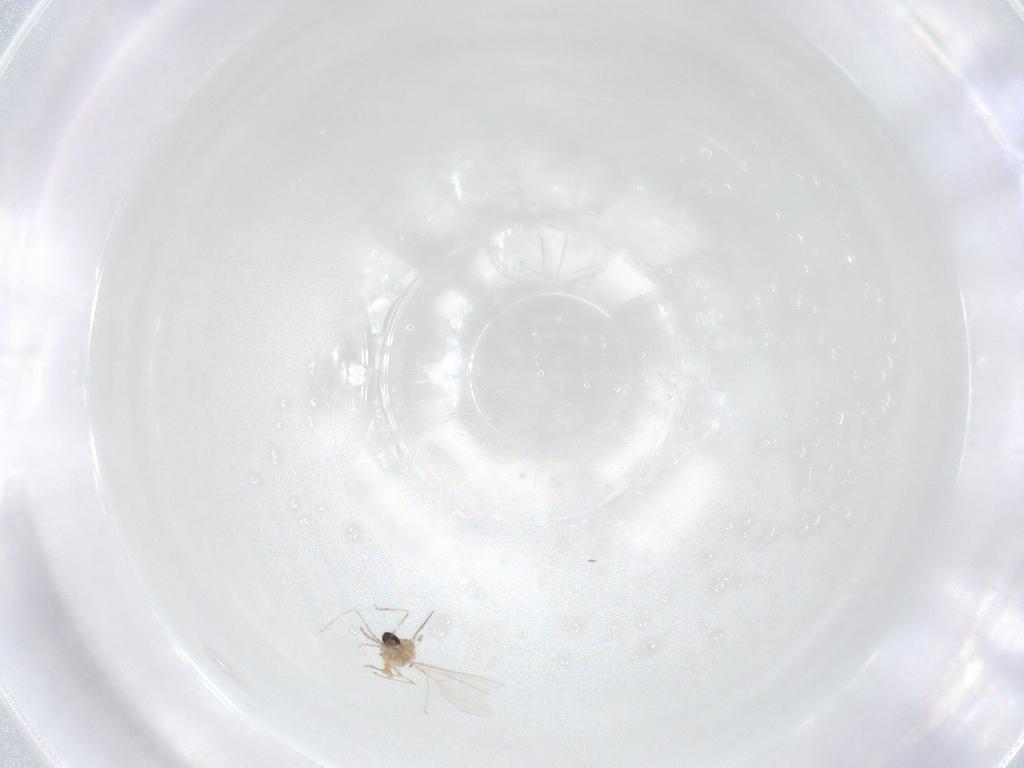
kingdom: Animalia
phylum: Arthropoda
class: Insecta
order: Diptera
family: Cecidomyiidae
